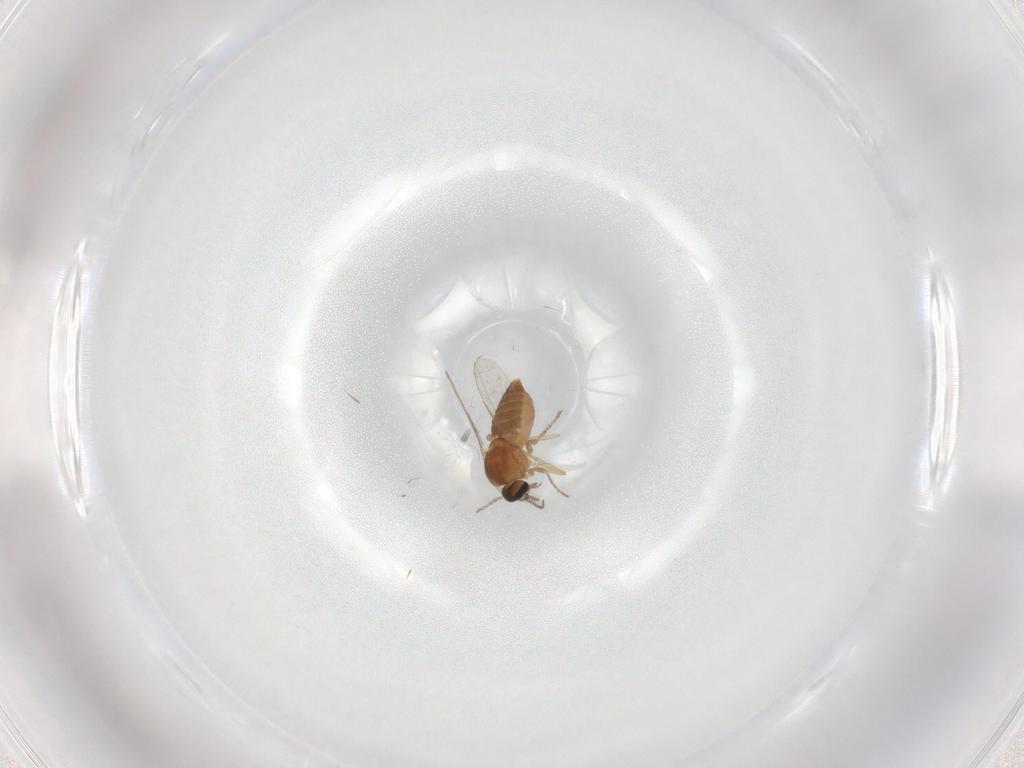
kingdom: Animalia
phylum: Arthropoda
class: Insecta
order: Diptera
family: Ceratopogonidae
